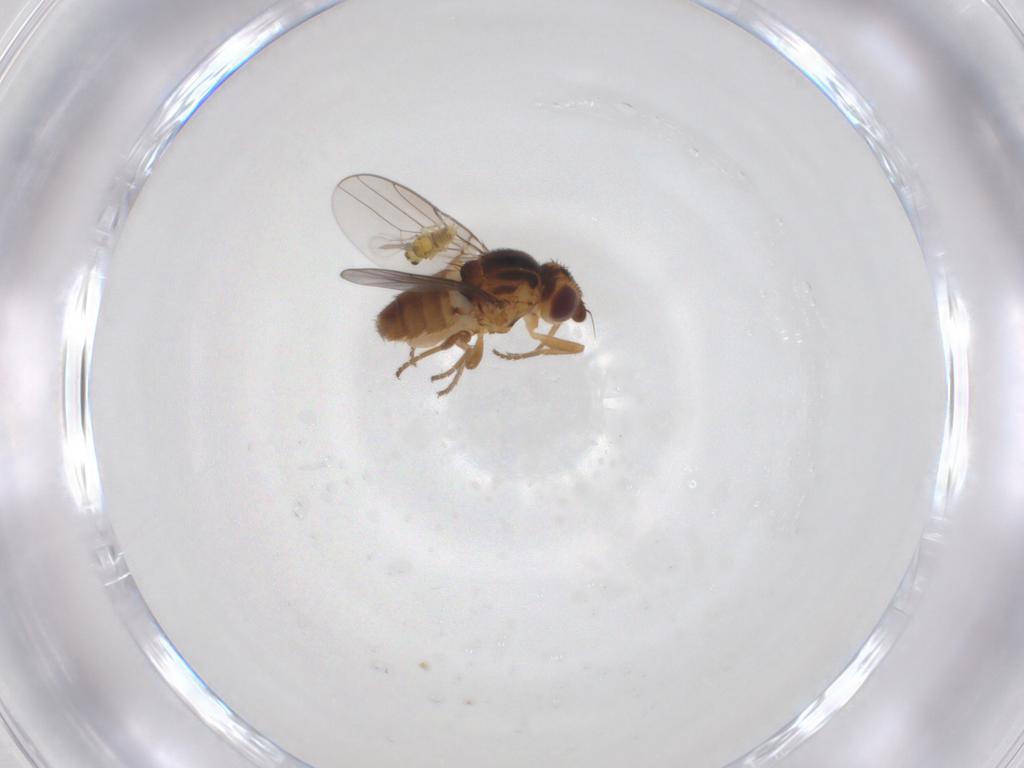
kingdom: Animalia
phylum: Arthropoda
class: Insecta
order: Diptera
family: Chloropidae
